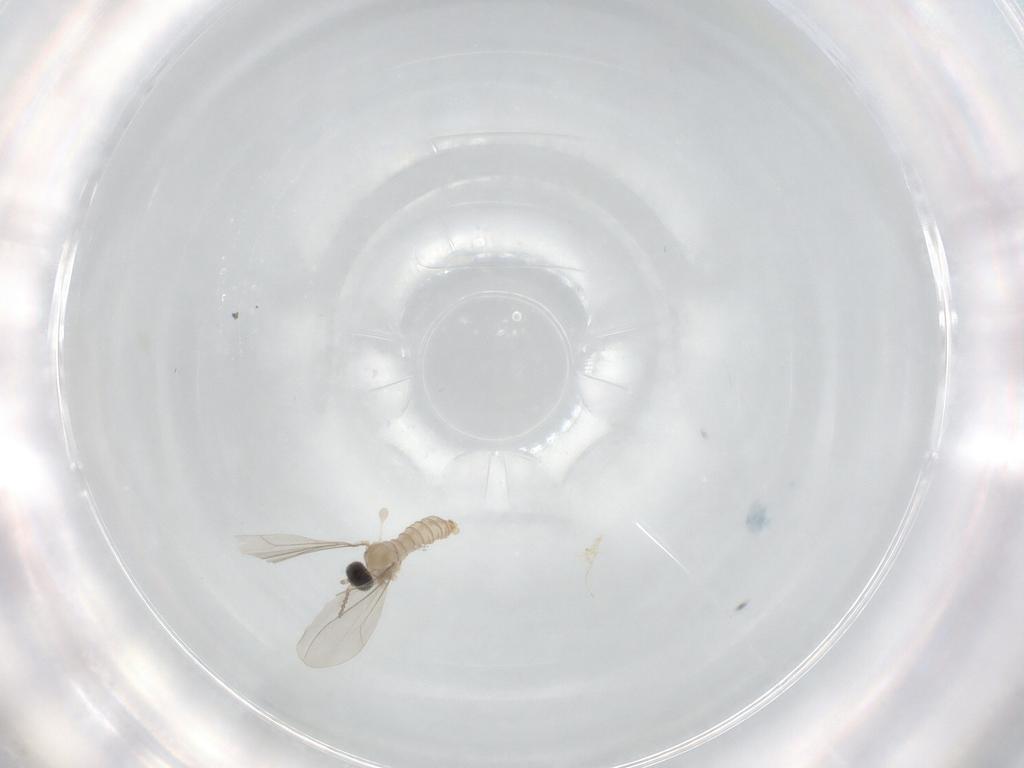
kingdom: Animalia
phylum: Arthropoda
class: Insecta
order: Diptera
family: Cecidomyiidae
